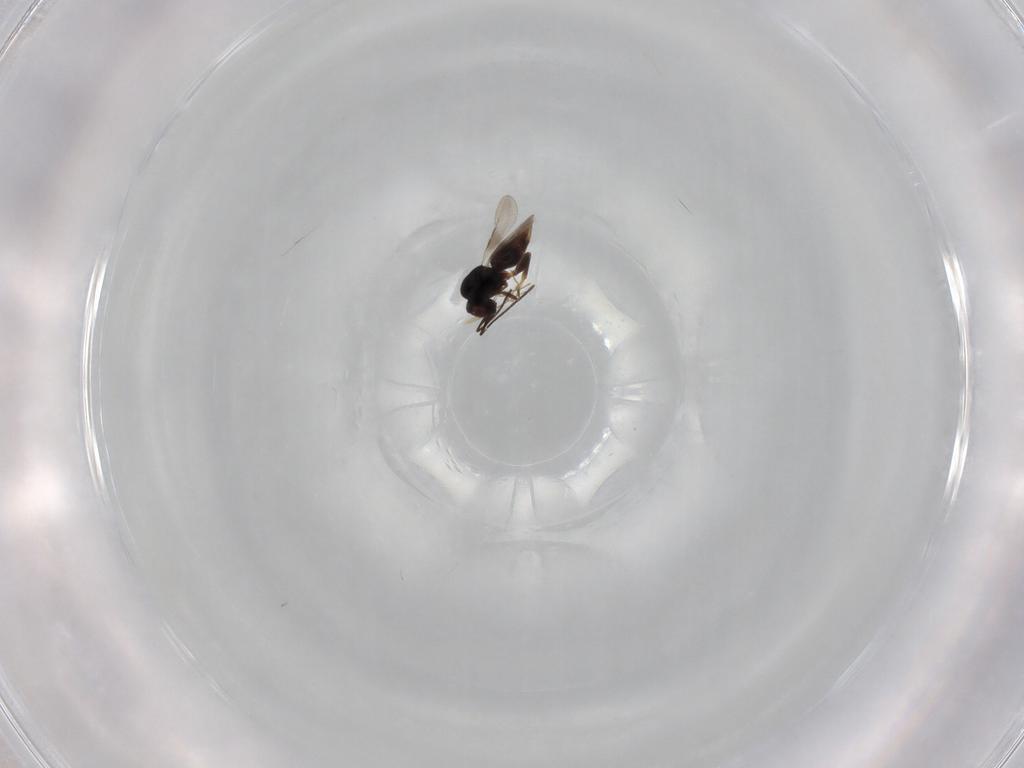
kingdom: Animalia
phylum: Arthropoda
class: Insecta
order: Hymenoptera
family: Ceraphronidae
